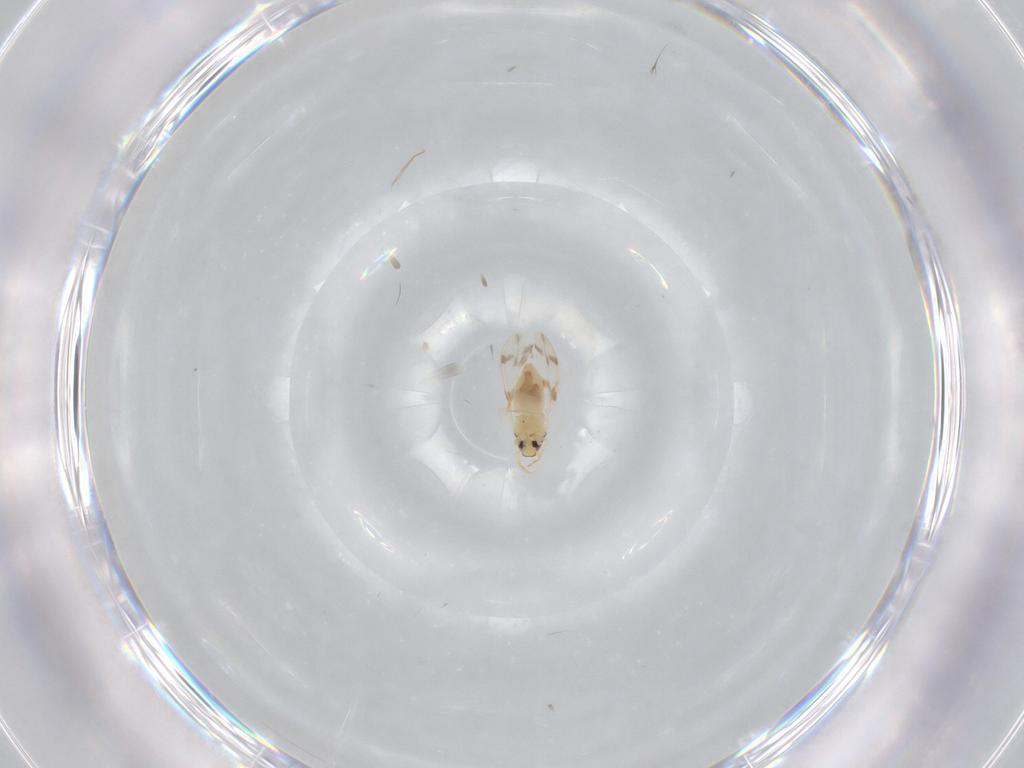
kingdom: Animalia
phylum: Arthropoda
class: Insecta
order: Hemiptera
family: Aleyrodidae
